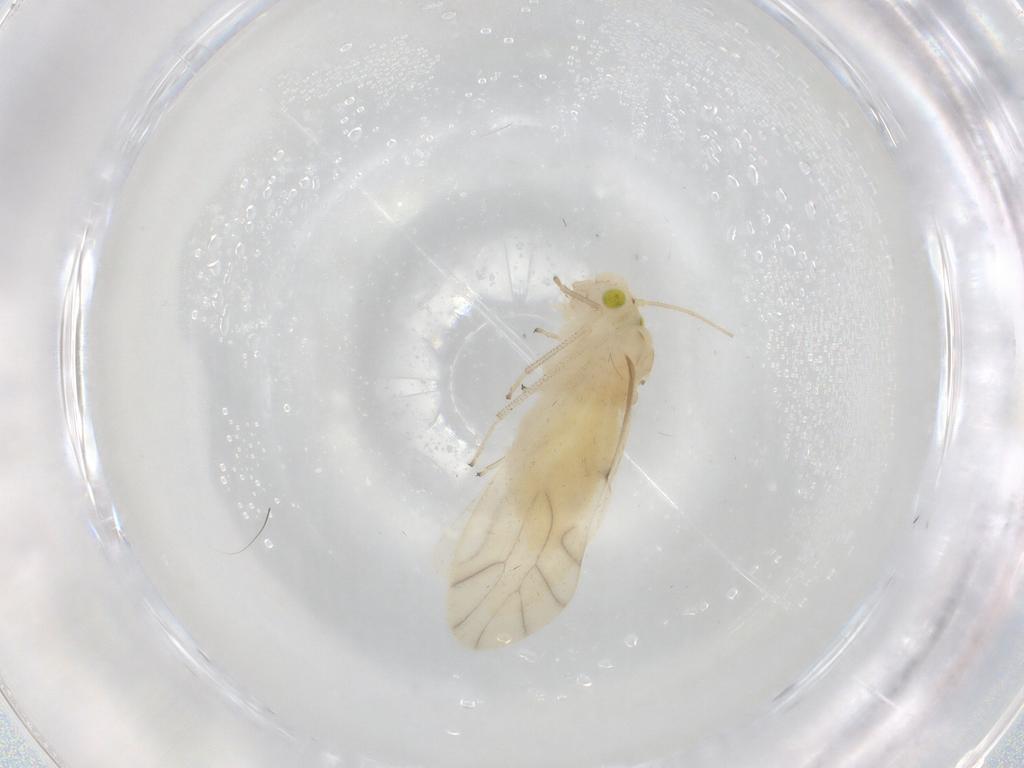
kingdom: Animalia
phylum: Arthropoda
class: Insecta
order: Psocodea
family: Caeciliusidae
